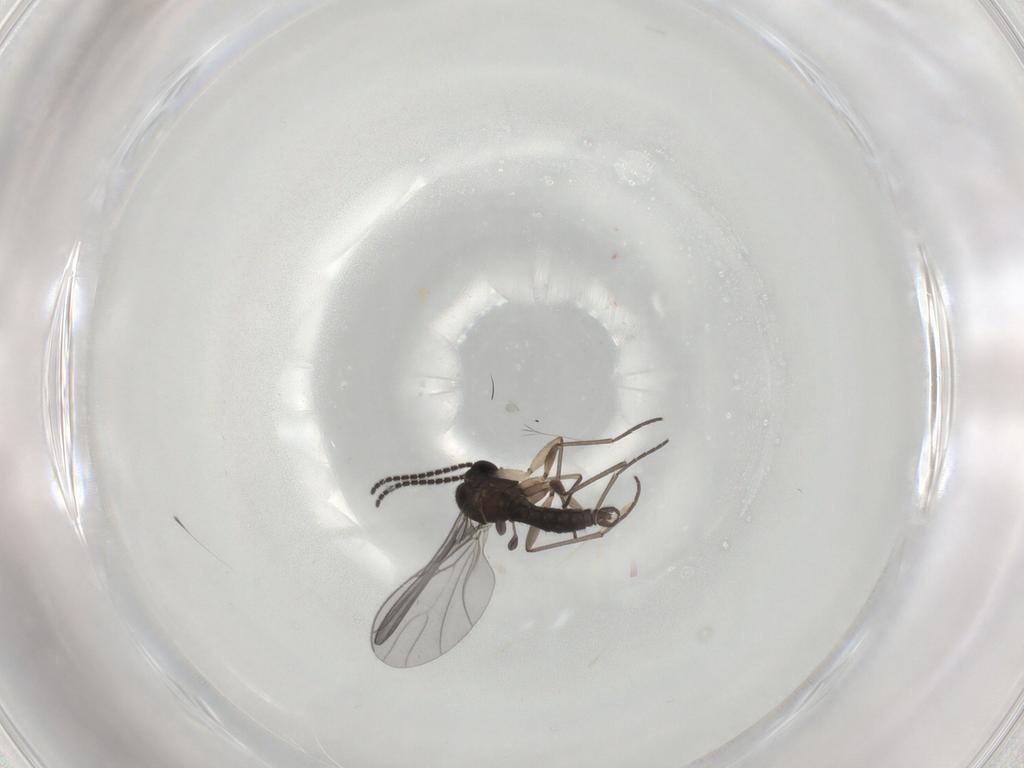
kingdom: Animalia
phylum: Arthropoda
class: Insecta
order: Diptera
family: Sciaridae
